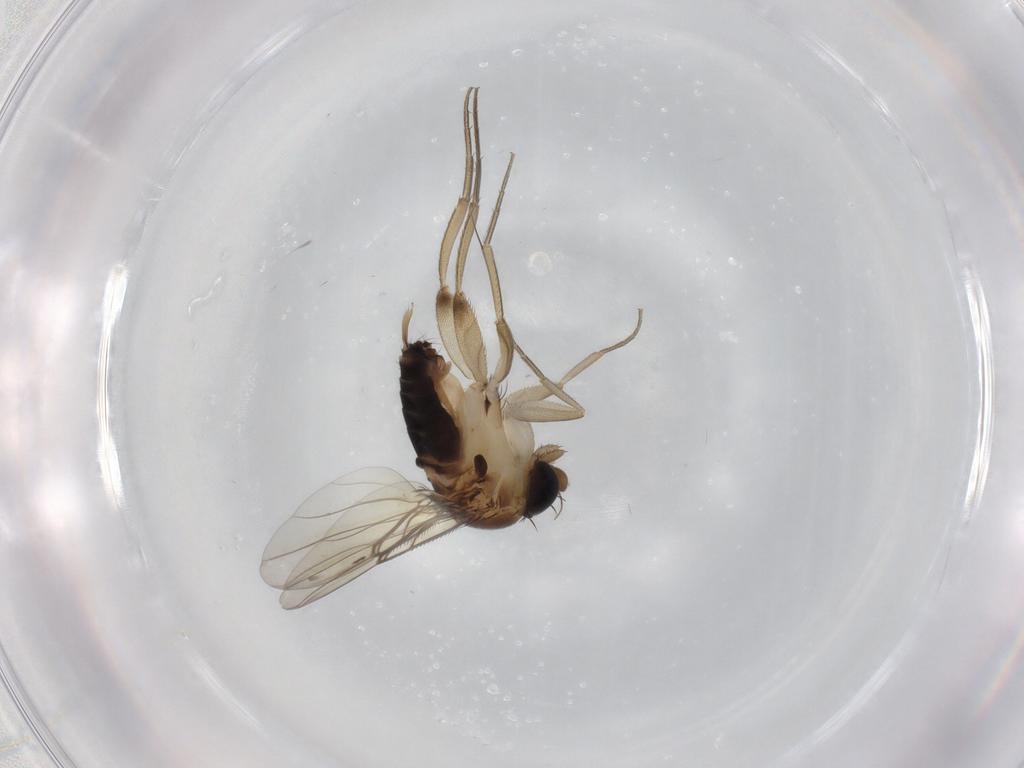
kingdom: Animalia
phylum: Arthropoda
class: Insecta
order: Diptera
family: Phoridae
